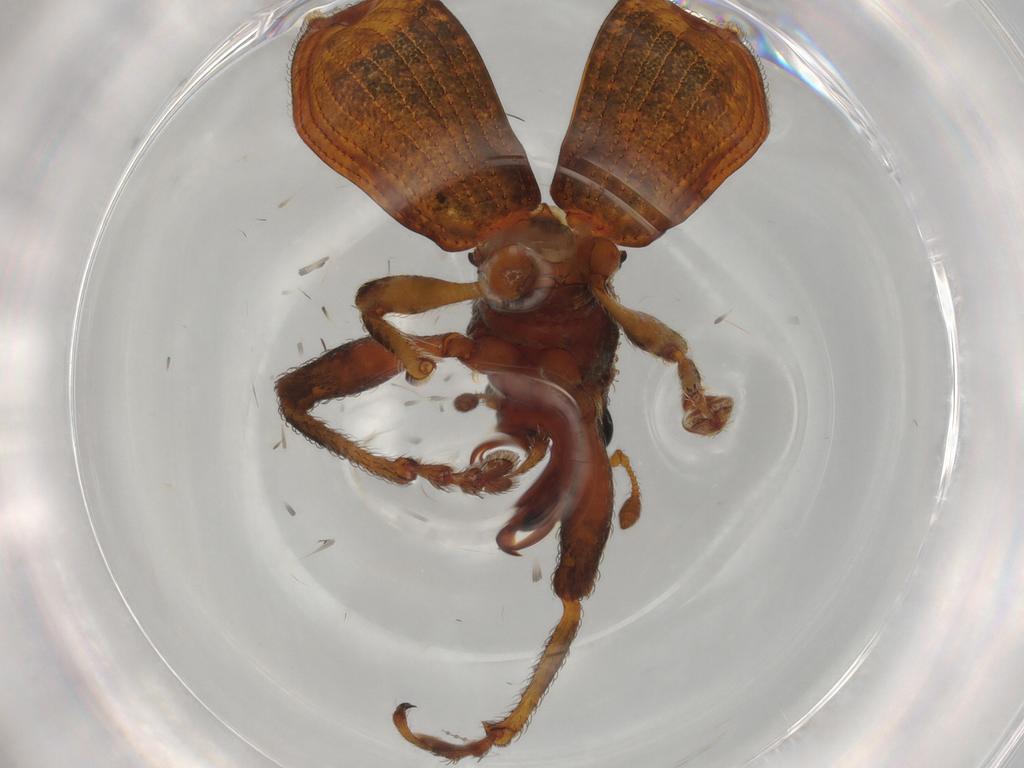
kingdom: Animalia
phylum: Arthropoda
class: Insecta
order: Coleoptera
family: Curculionidae
